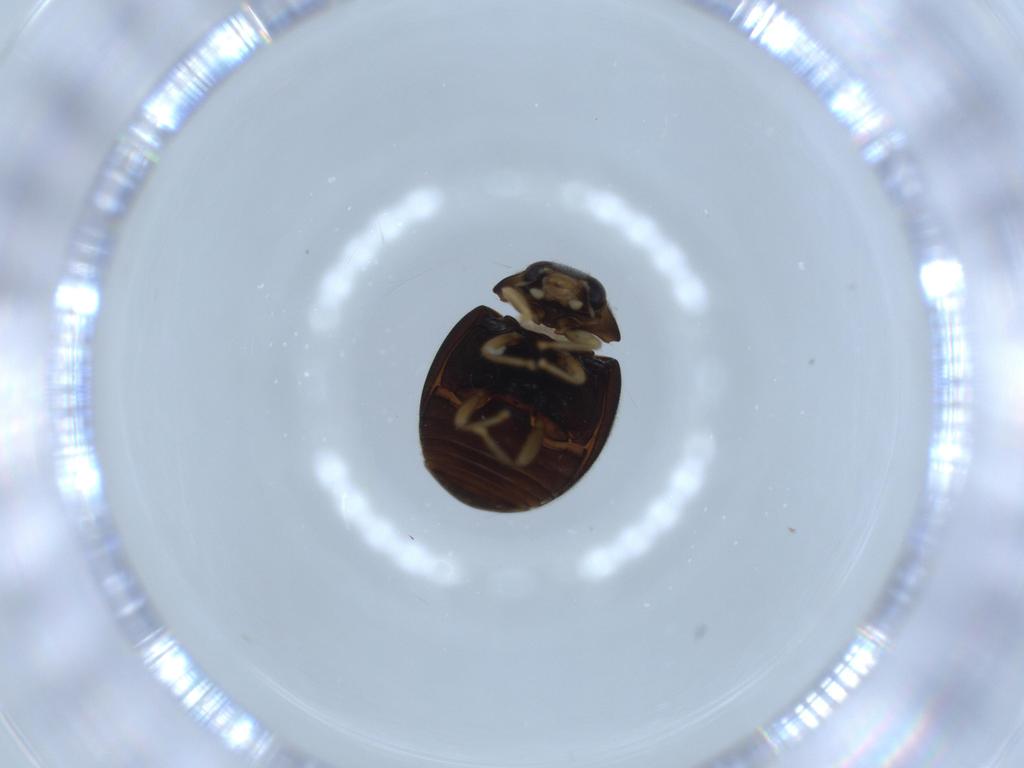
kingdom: Animalia
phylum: Arthropoda
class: Insecta
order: Coleoptera
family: Coccinellidae
